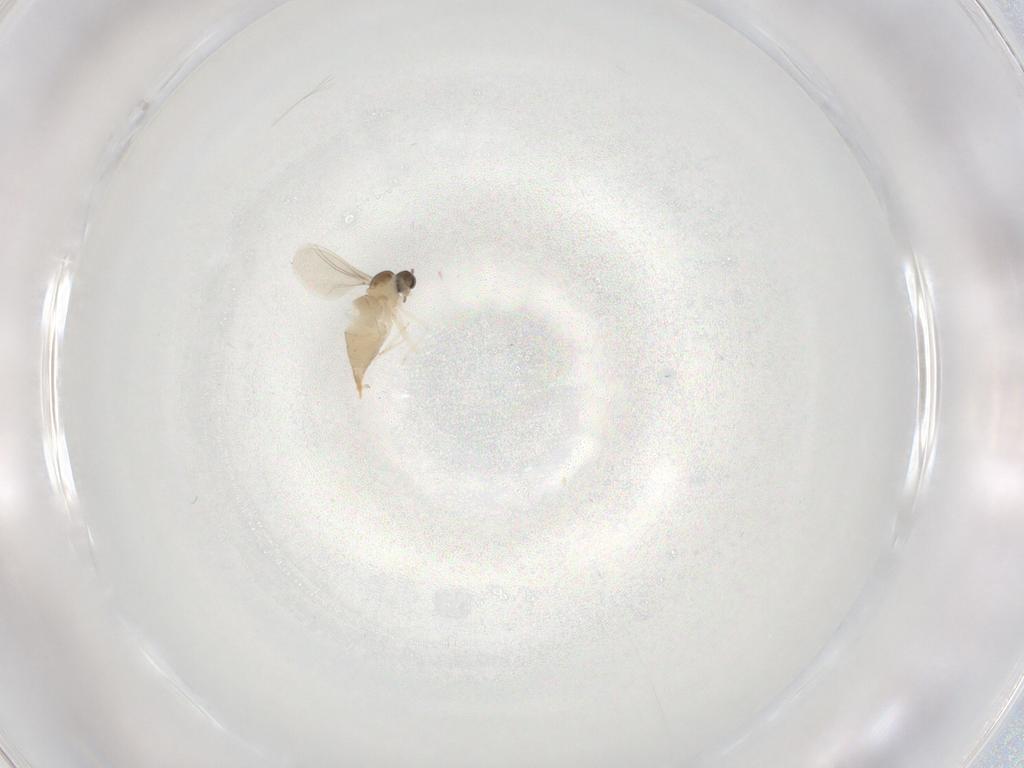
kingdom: Animalia
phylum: Arthropoda
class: Insecta
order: Diptera
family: Cecidomyiidae
